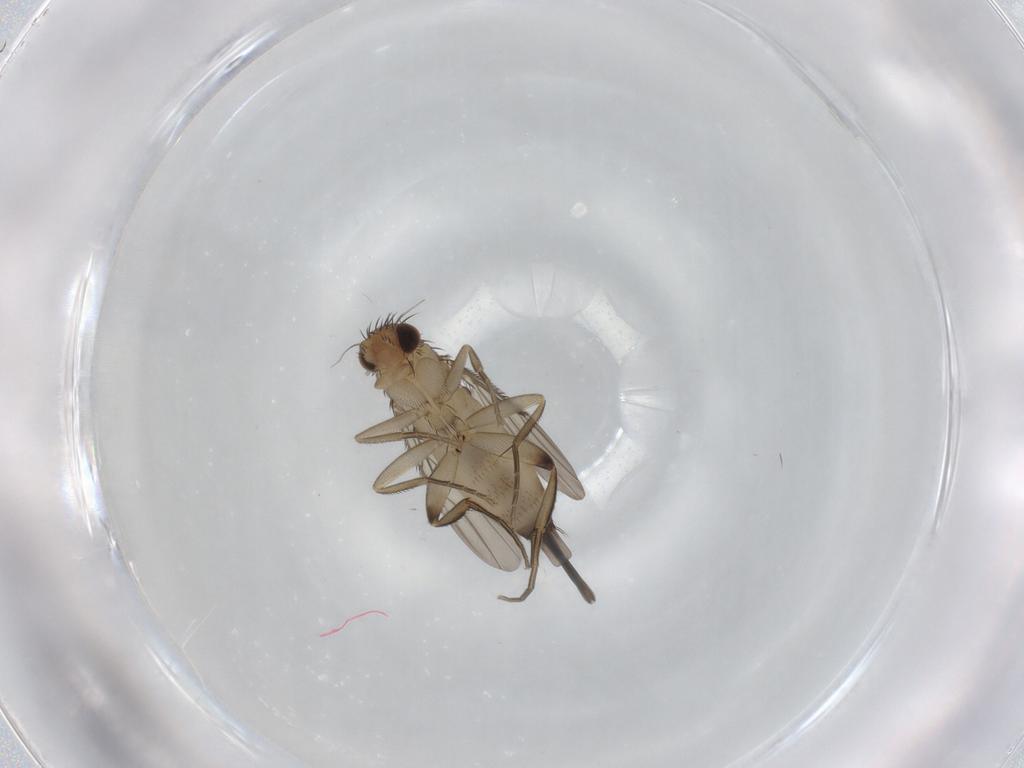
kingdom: Animalia
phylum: Arthropoda
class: Insecta
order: Diptera
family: Phoridae
